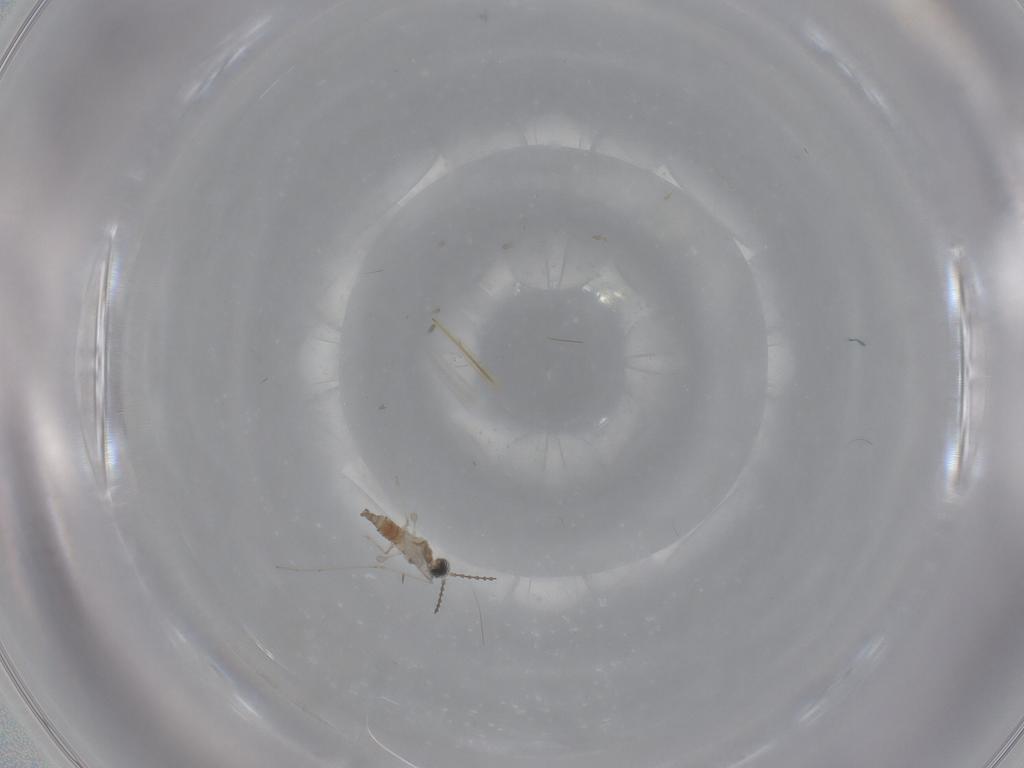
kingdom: Animalia
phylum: Arthropoda
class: Insecta
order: Diptera
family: Cecidomyiidae
